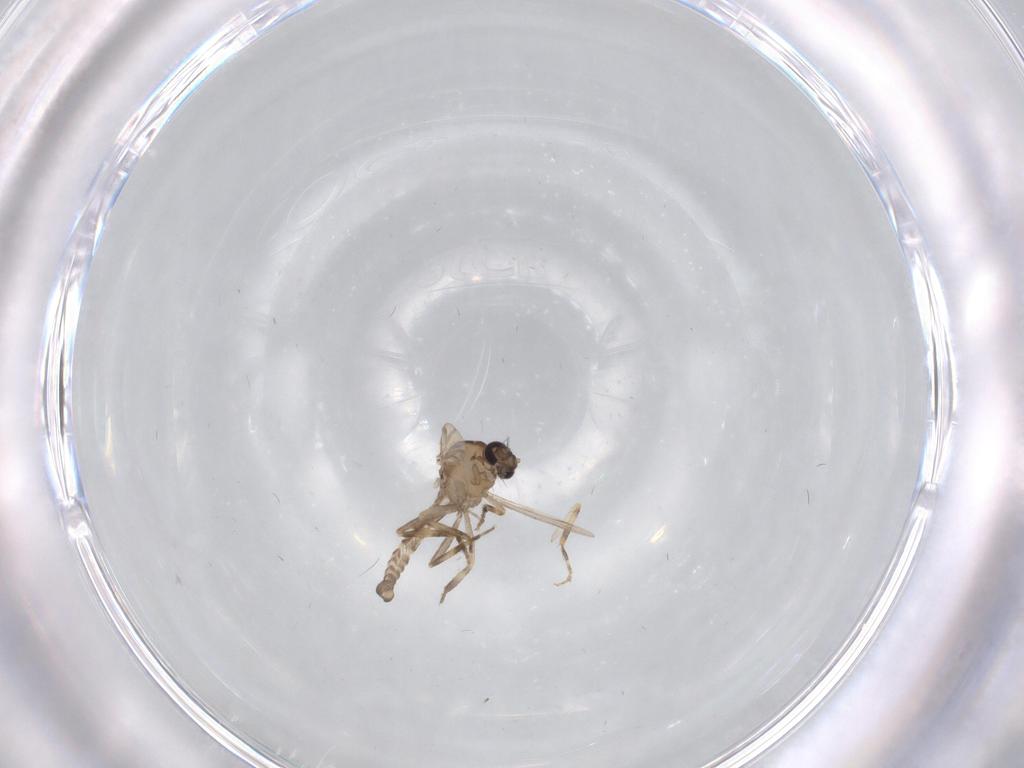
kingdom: Animalia
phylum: Arthropoda
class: Insecta
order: Diptera
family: Ceratopogonidae
